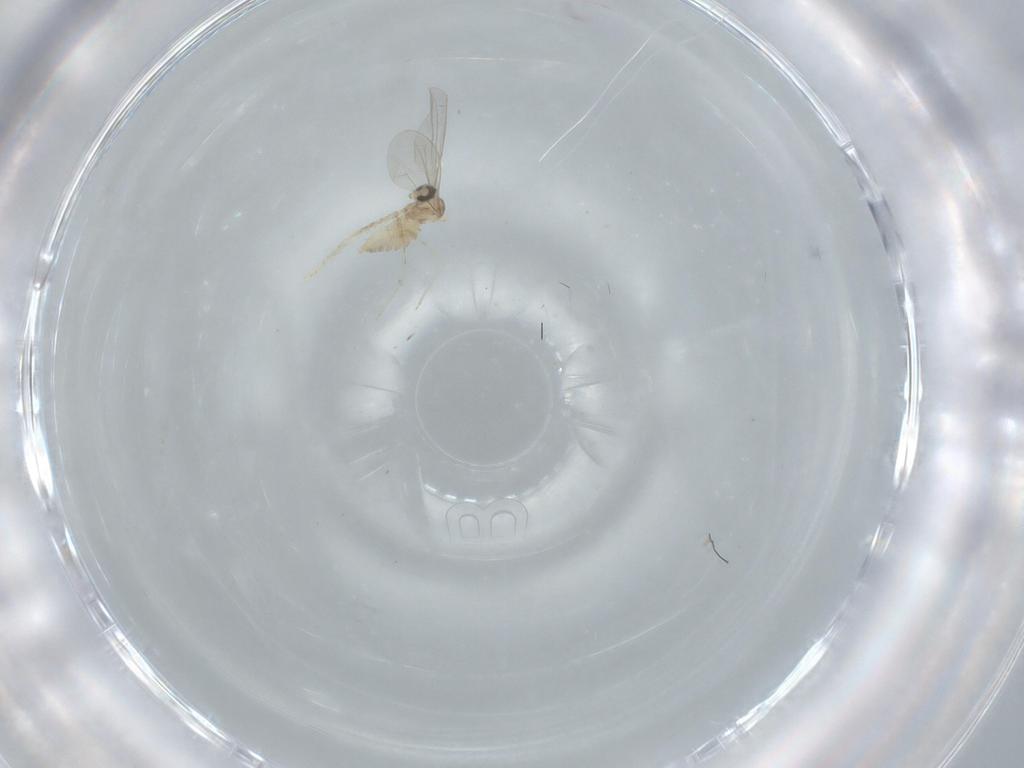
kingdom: Animalia
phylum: Arthropoda
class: Insecta
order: Diptera
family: Cecidomyiidae
